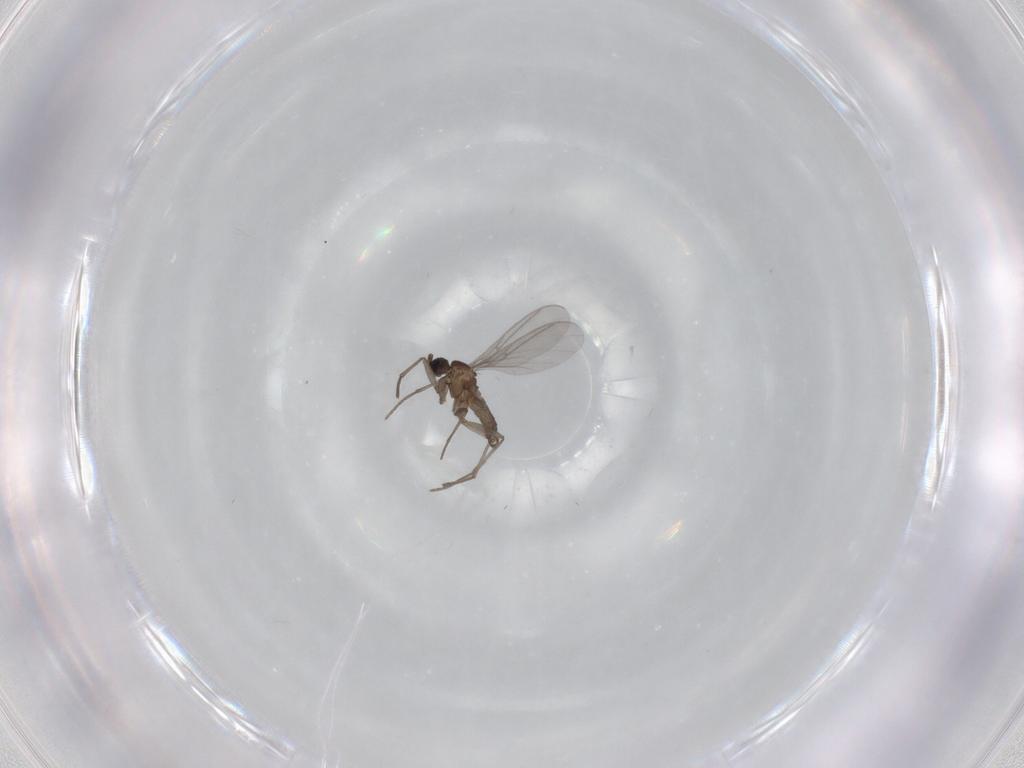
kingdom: Animalia
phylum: Arthropoda
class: Insecta
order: Diptera
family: Sciaridae
